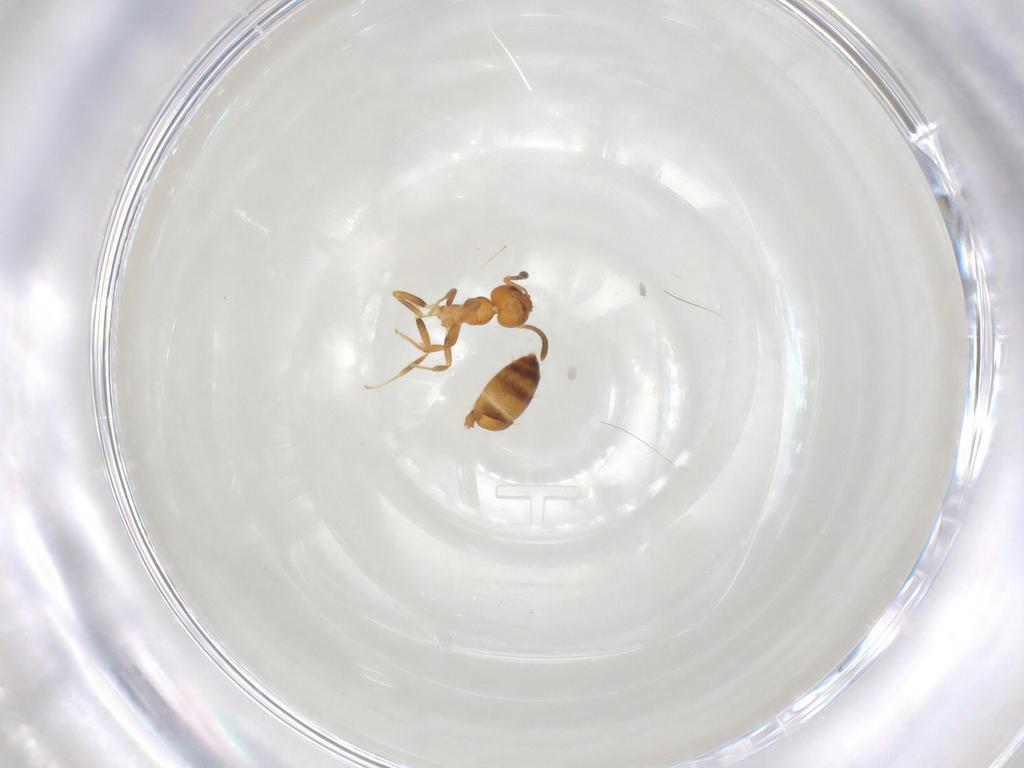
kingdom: Animalia
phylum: Arthropoda
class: Insecta
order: Hymenoptera
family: Formicidae
